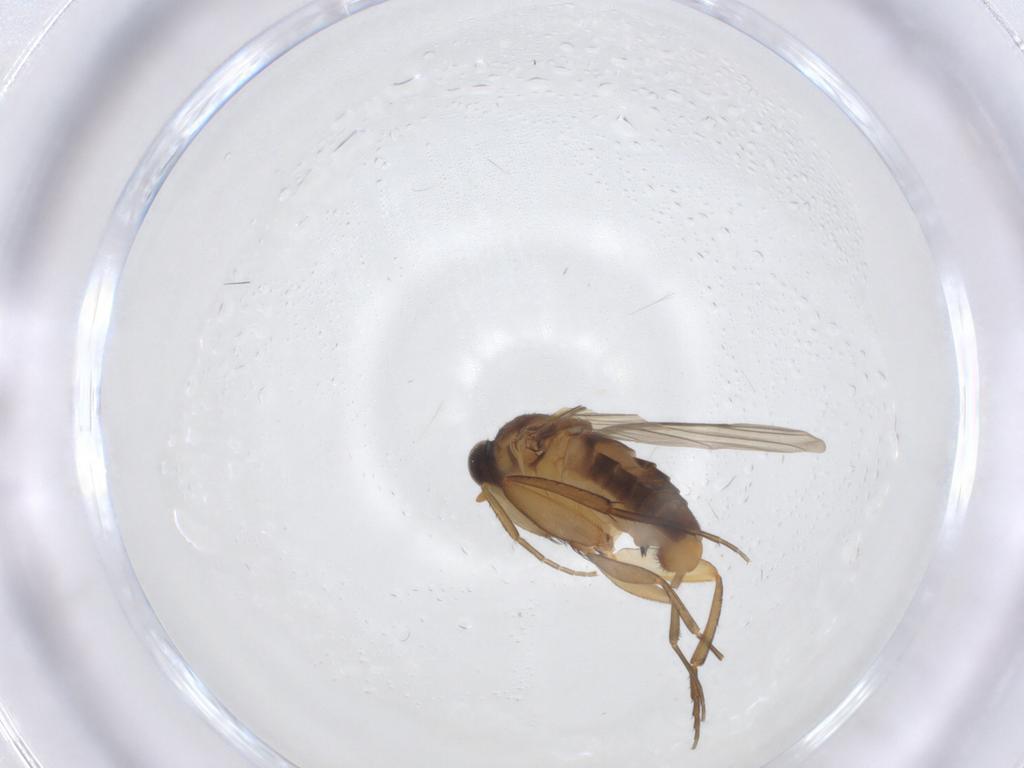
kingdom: Animalia
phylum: Arthropoda
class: Insecta
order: Diptera
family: Phoridae
